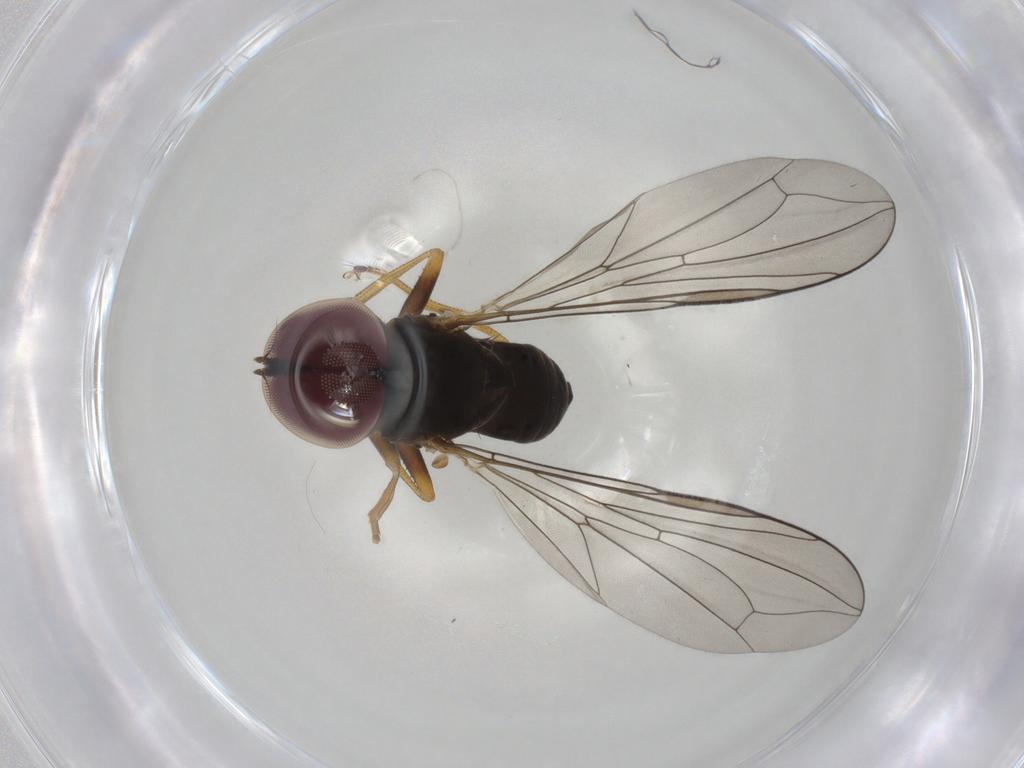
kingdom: Animalia
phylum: Arthropoda
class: Insecta
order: Diptera
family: Pipunculidae
